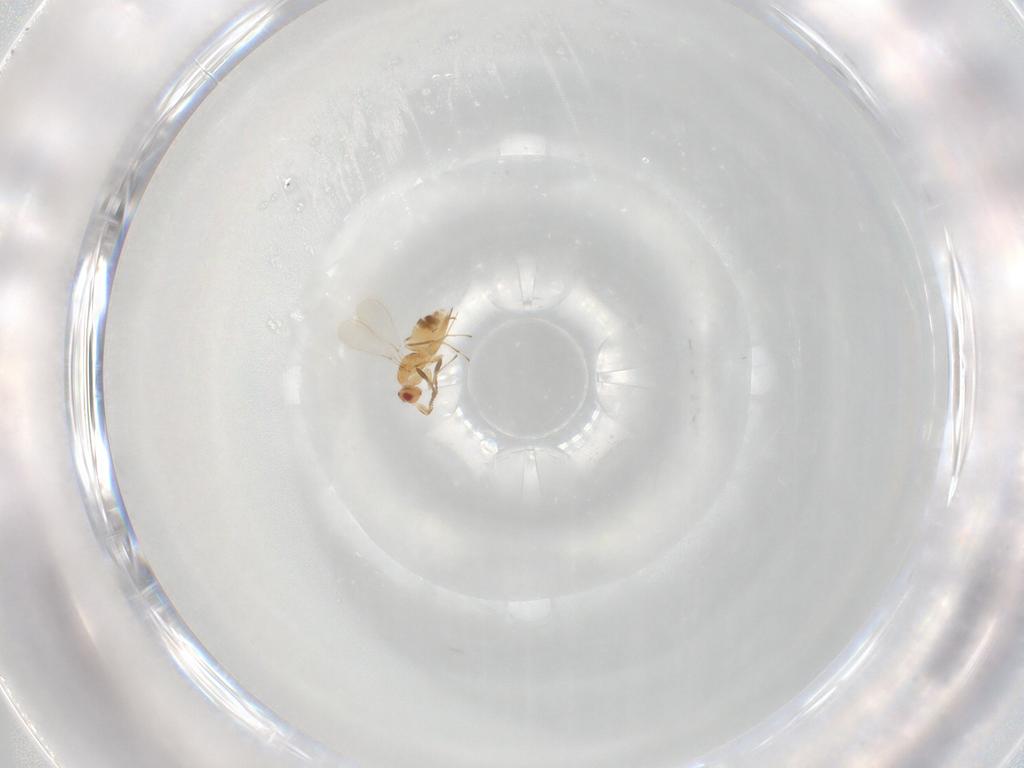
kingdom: Animalia
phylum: Arthropoda
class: Insecta
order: Hymenoptera
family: Mymaridae
